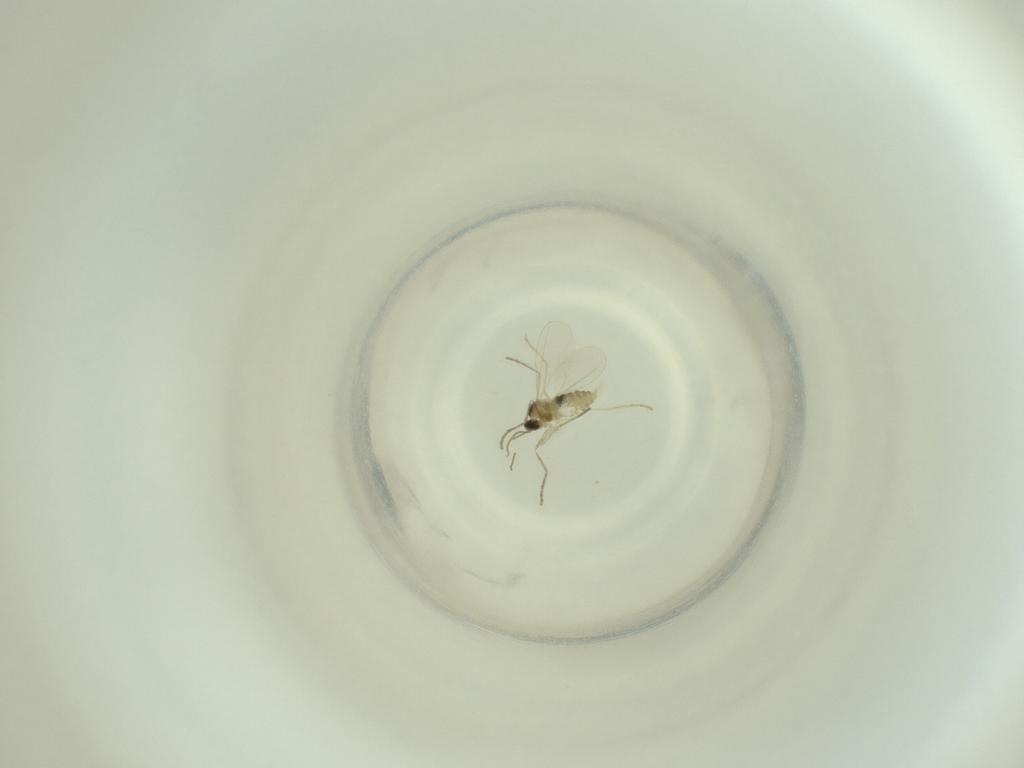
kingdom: Animalia
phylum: Arthropoda
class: Insecta
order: Diptera
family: Cecidomyiidae
